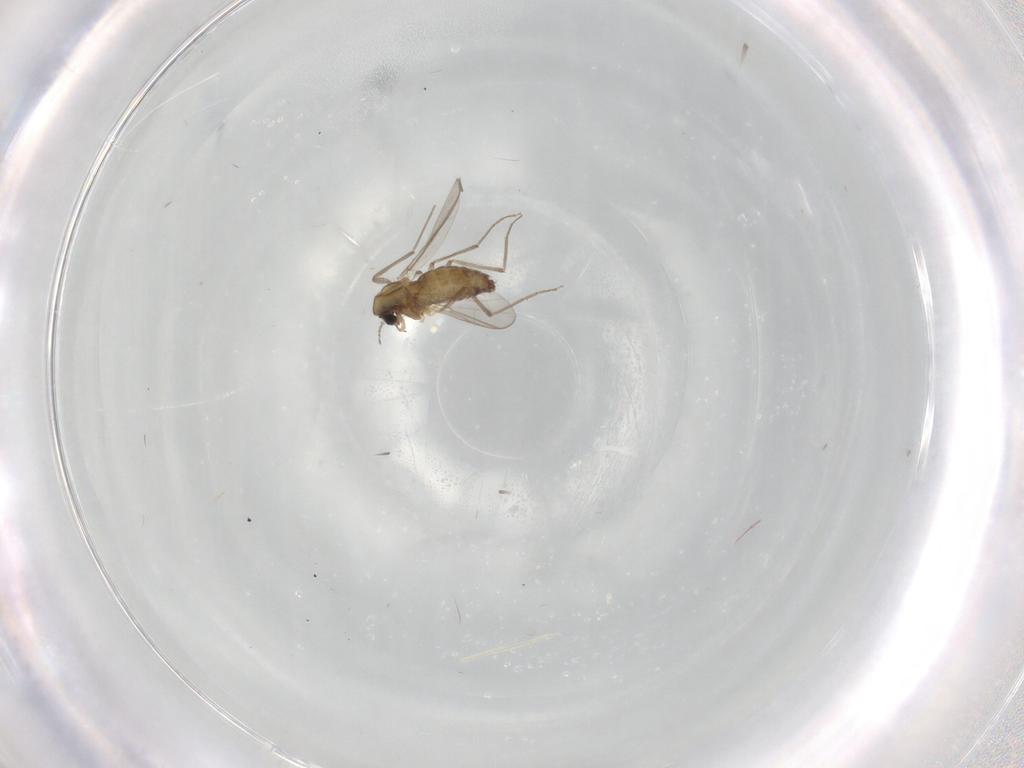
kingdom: Animalia
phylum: Arthropoda
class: Insecta
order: Diptera
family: Chironomidae
